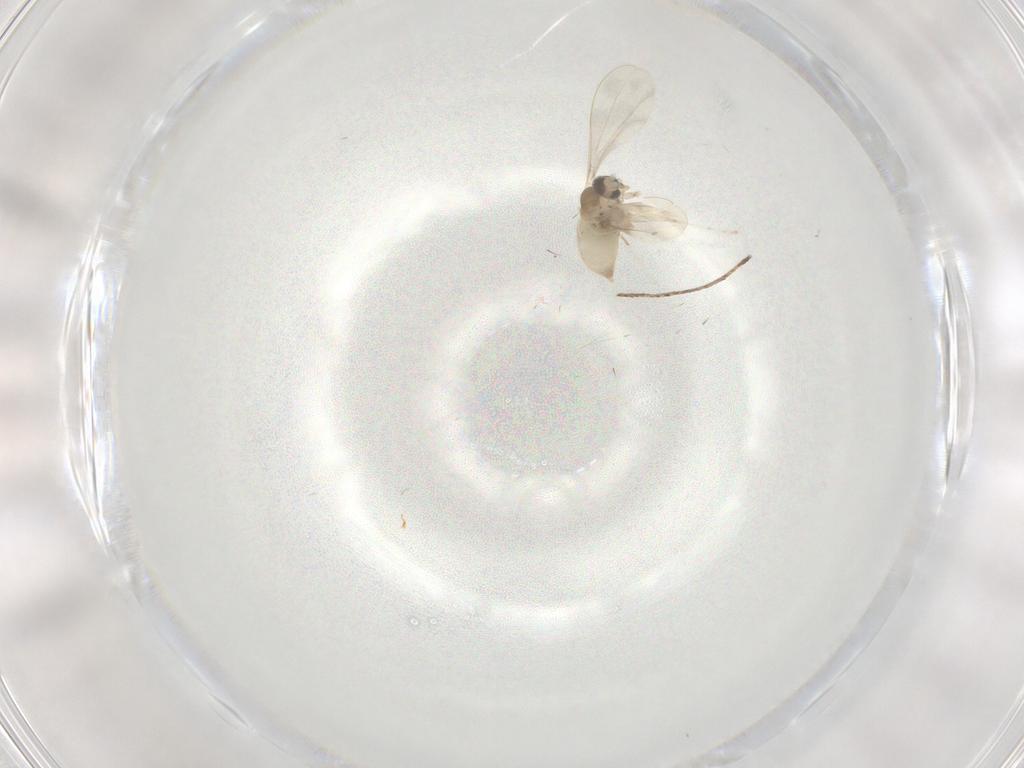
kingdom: Animalia
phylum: Arthropoda
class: Insecta
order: Diptera
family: Cecidomyiidae
